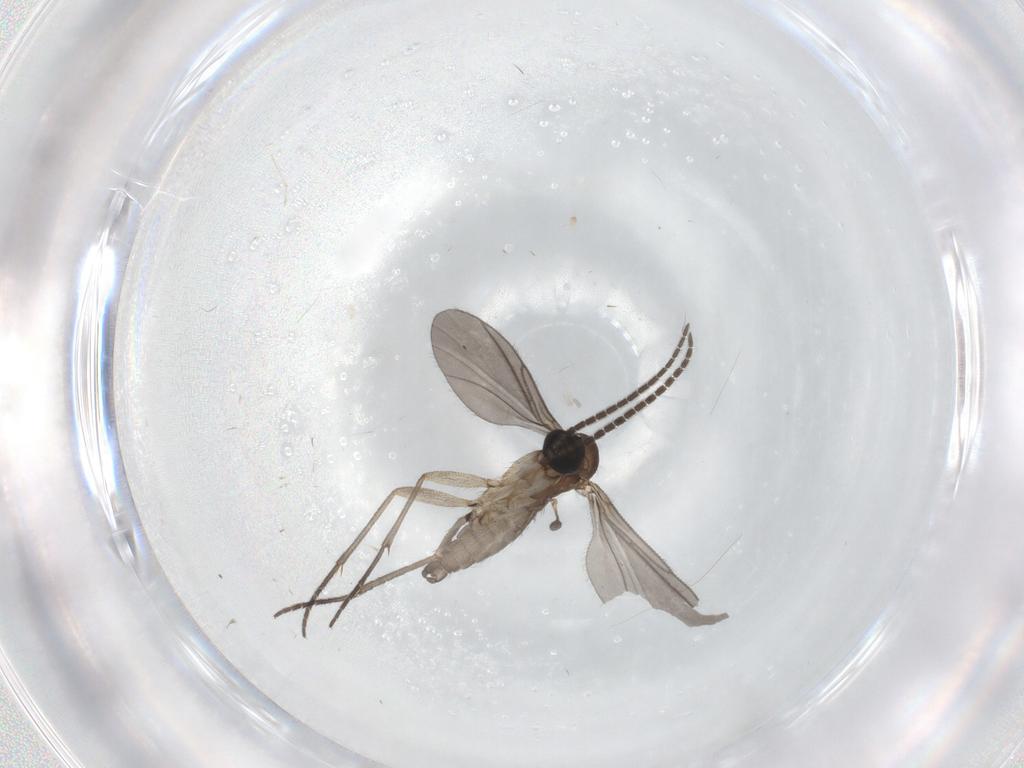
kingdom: Animalia
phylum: Arthropoda
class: Insecta
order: Diptera
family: Sciaridae
